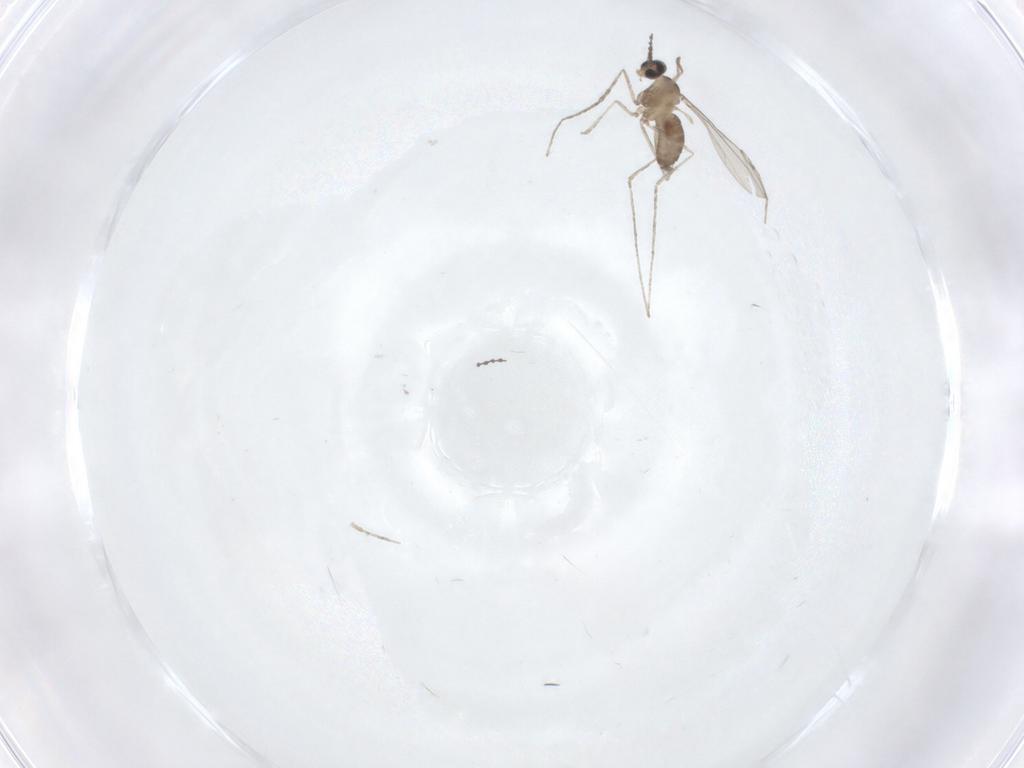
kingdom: Animalia
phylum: Arthropoda
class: Insecta
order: Diptera
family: Cecidomyiidae
